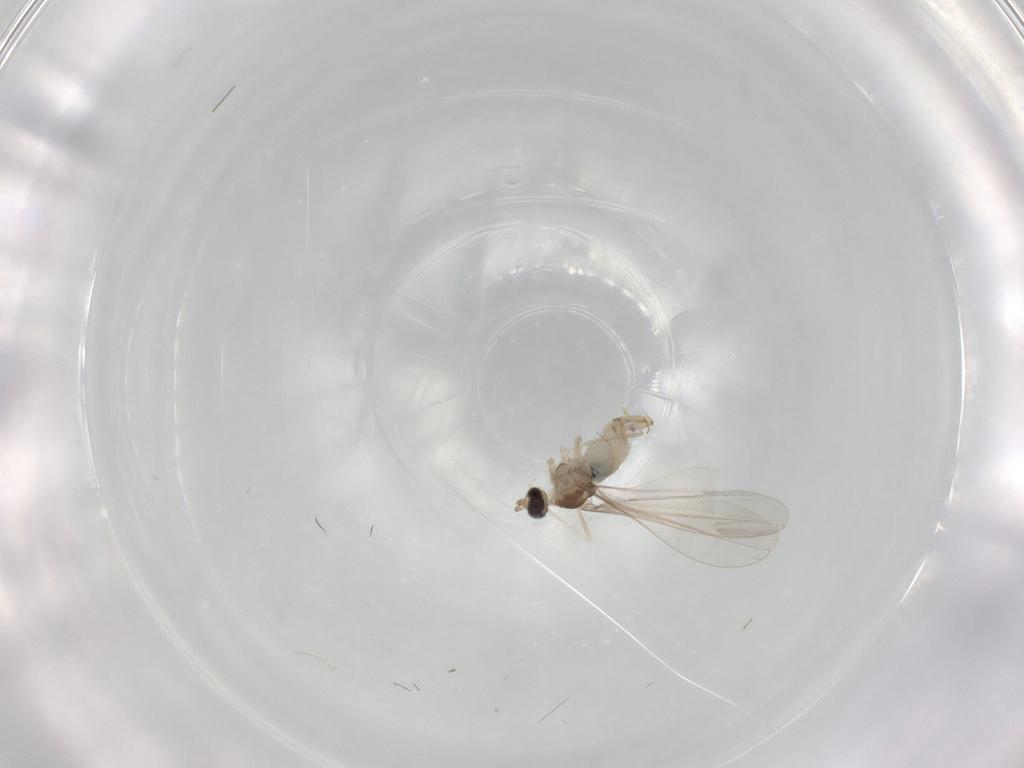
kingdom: Animalia
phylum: Arthropoda
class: Insecta
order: Diptera
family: Cecidomyiidae
